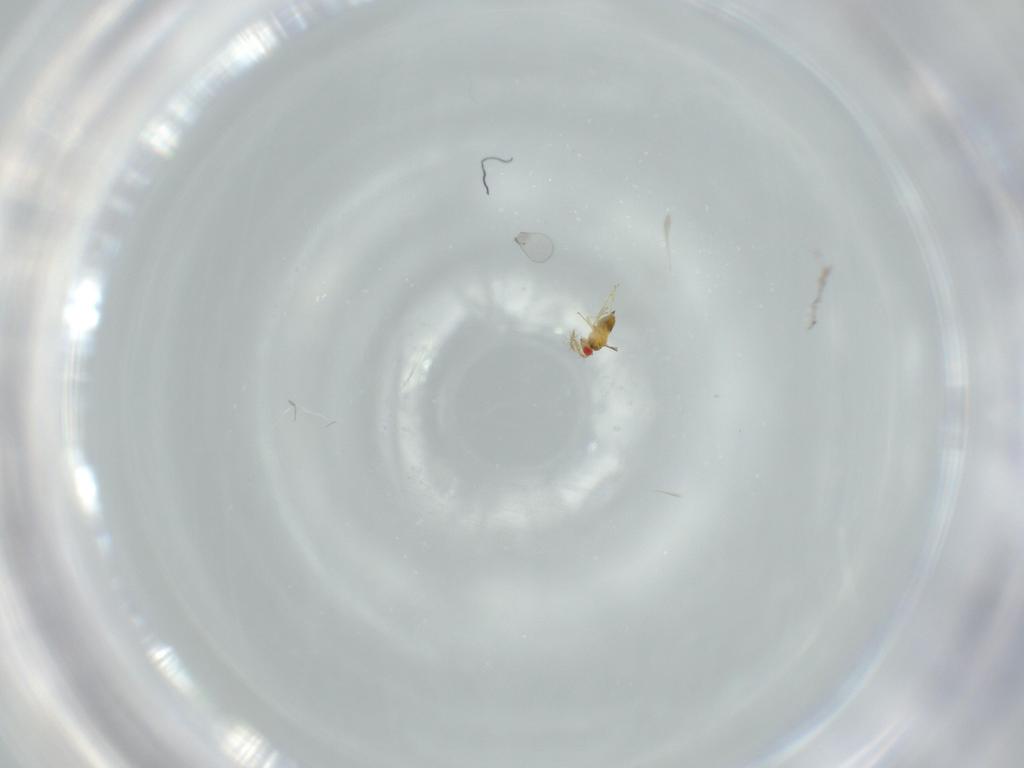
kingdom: Animalia
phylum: Arthropoda
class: Insecta
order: Hymenoptera
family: Trichogrammatidae
